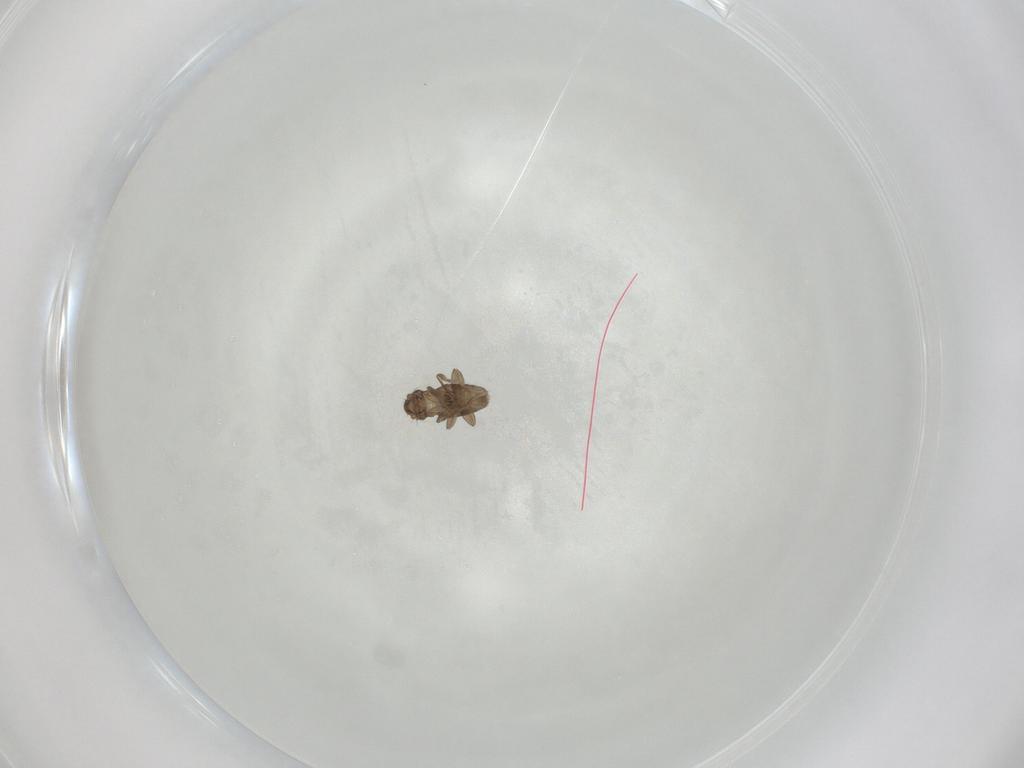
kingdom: Animalia
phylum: Arthropoda
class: Insecta
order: Diptera
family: Phoridae
